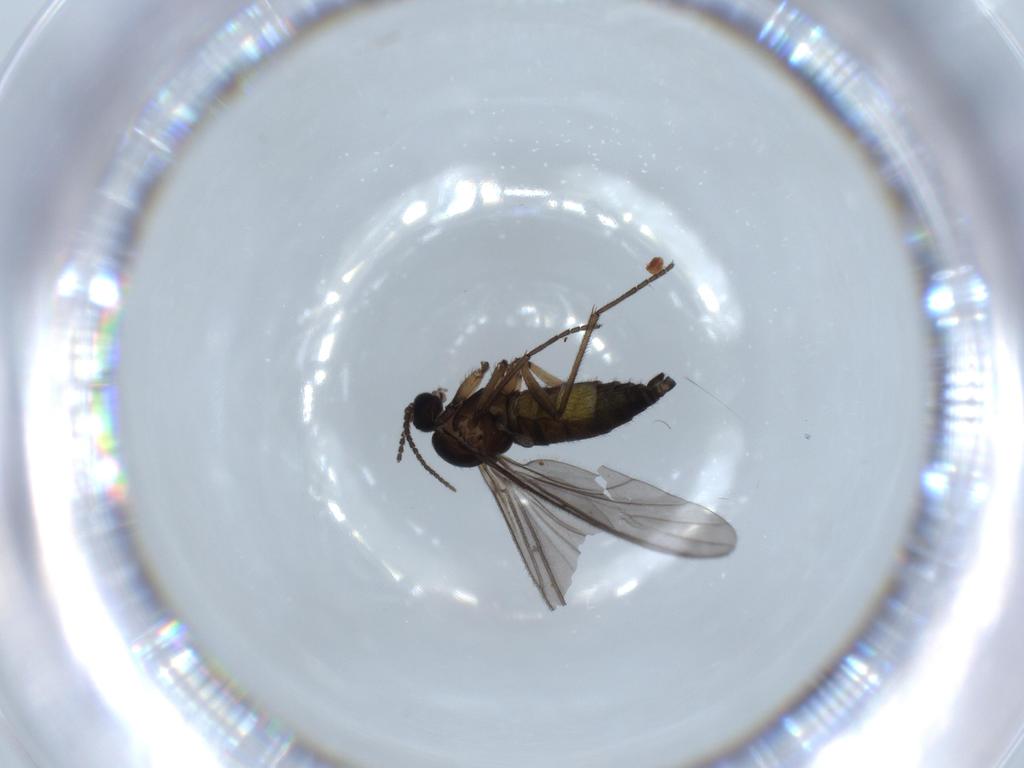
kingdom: Animalia
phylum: Arthropoda
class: Insecta
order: Diptera
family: Sciaridae
